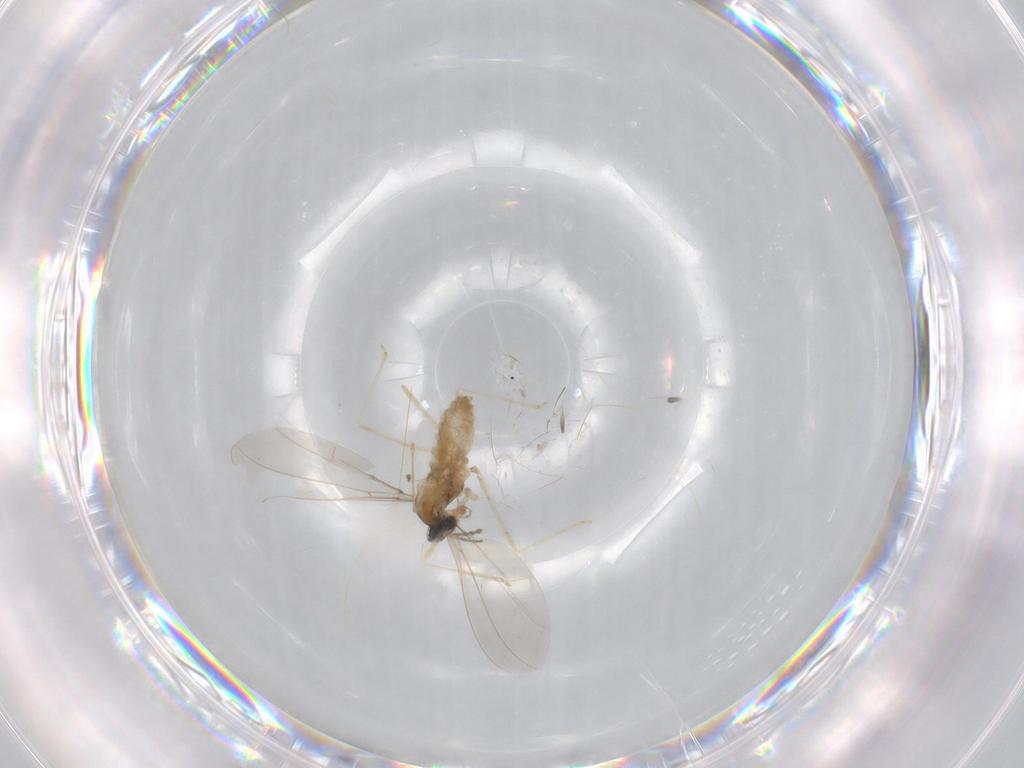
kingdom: Animalia
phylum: Arthropoda
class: Insecta
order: Diptera
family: Cecidomyiidae
